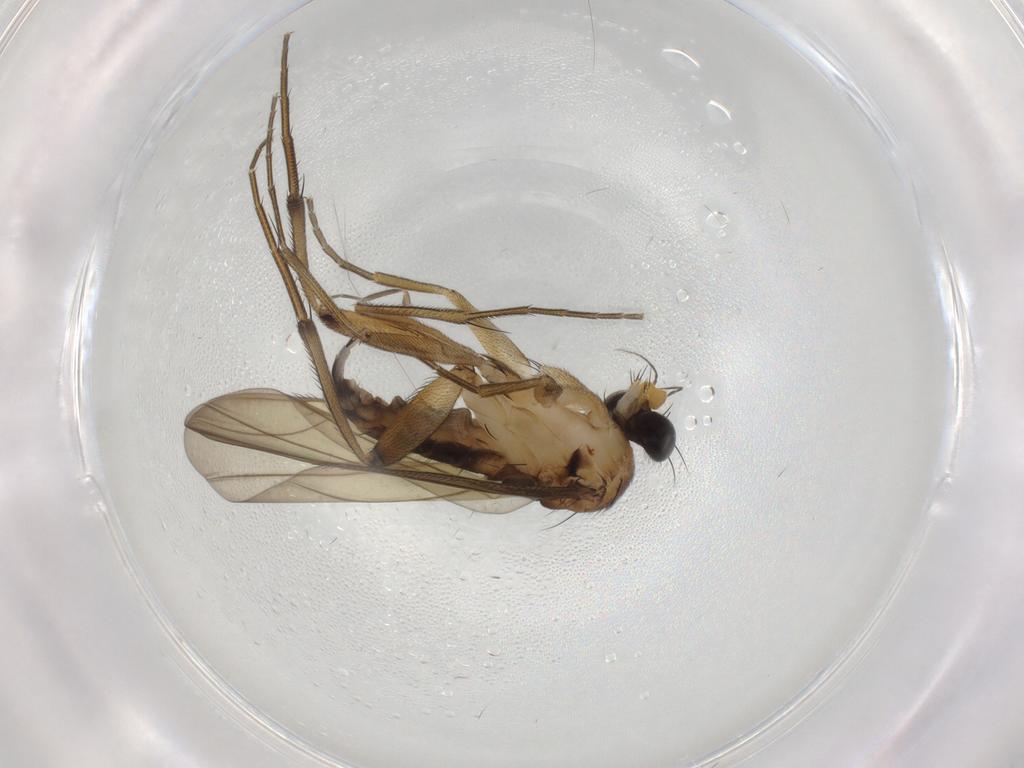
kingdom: Animalia
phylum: Arthropoda
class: Insecta
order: Diptera
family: Phoridae
